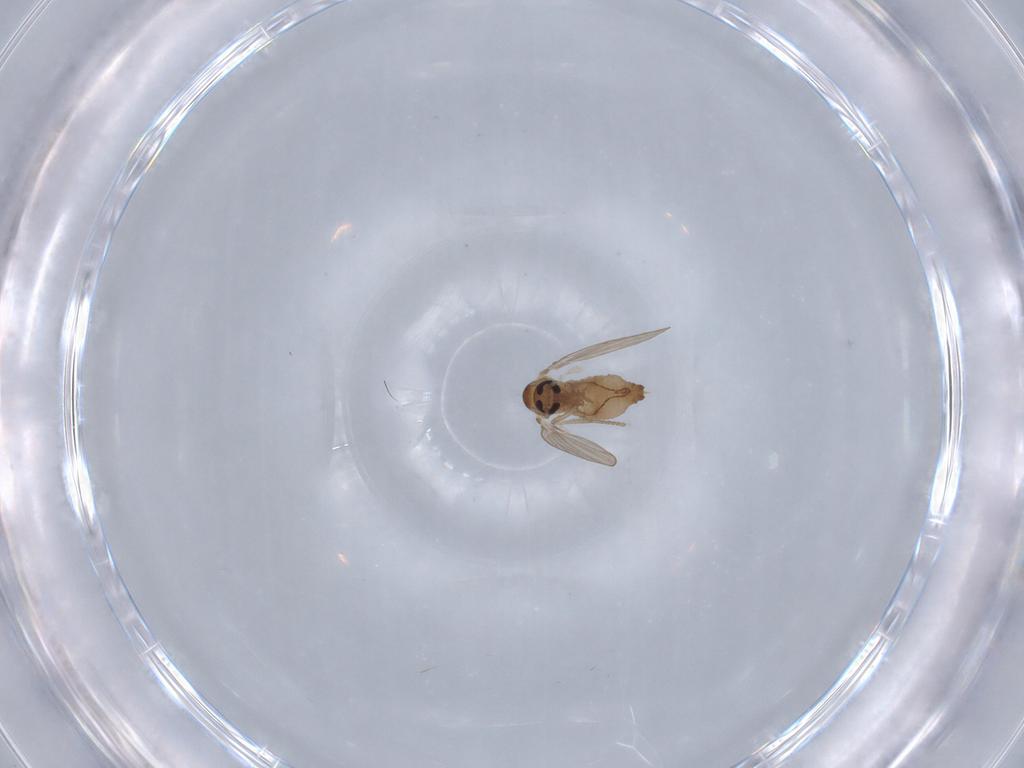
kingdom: Animalia
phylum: Arthropoda
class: Insecta
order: Diptera
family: Psychodidae
